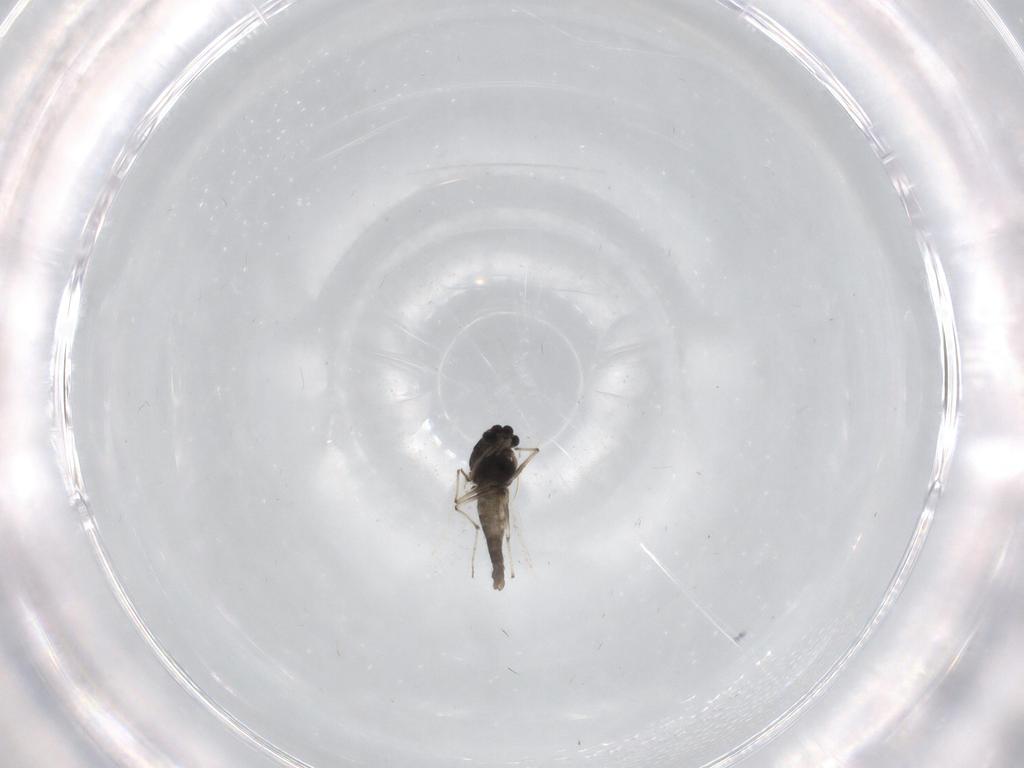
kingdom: Animalia
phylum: Arthropoda
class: Insecta
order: Diptera
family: Chironomidae
